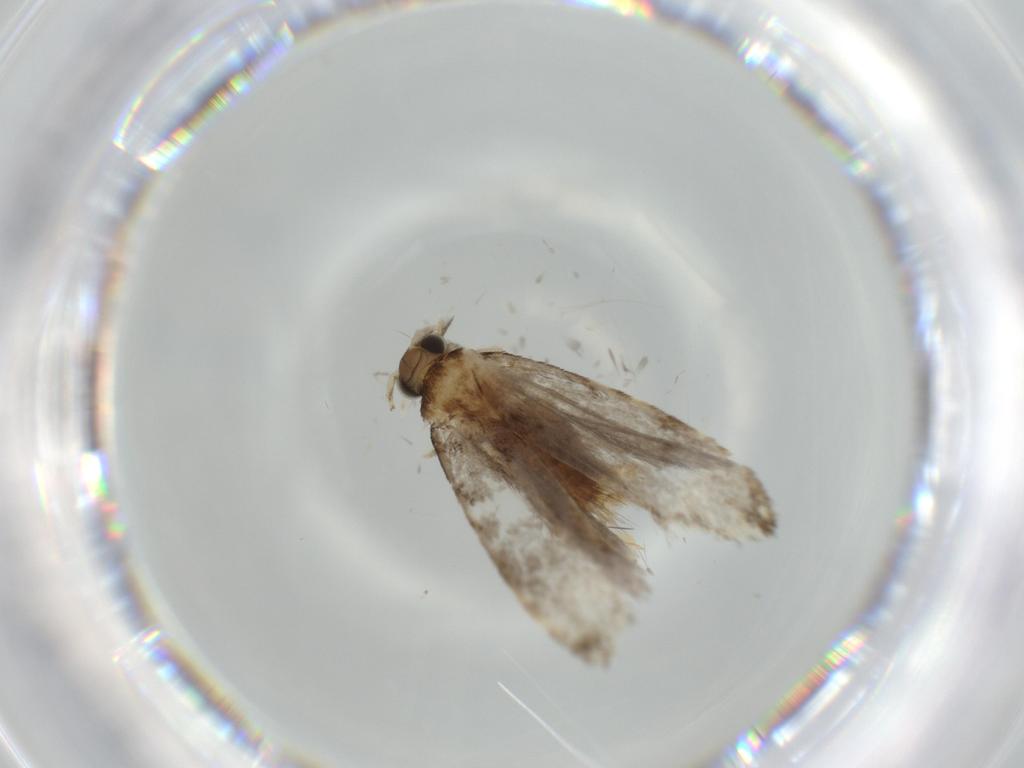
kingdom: Animalia
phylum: Arthropoda
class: Insecta
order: Lepidoptera
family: Tineidae
